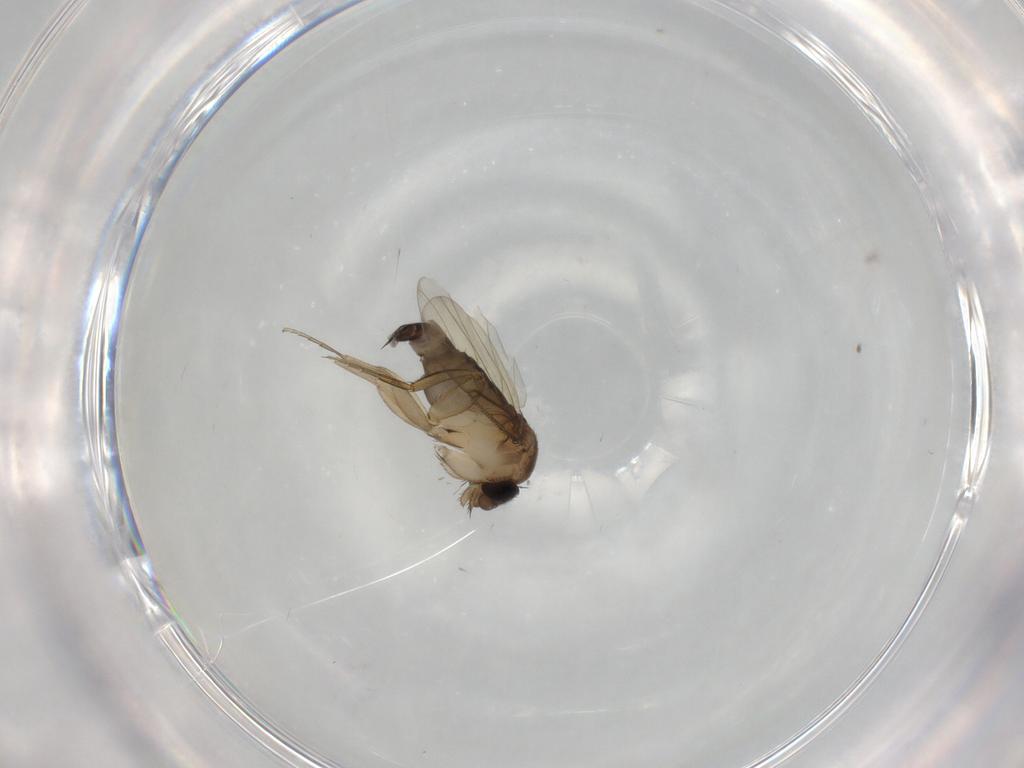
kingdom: Animalia
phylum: Arthropoda
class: Insecta
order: Diptera
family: Phoridae
